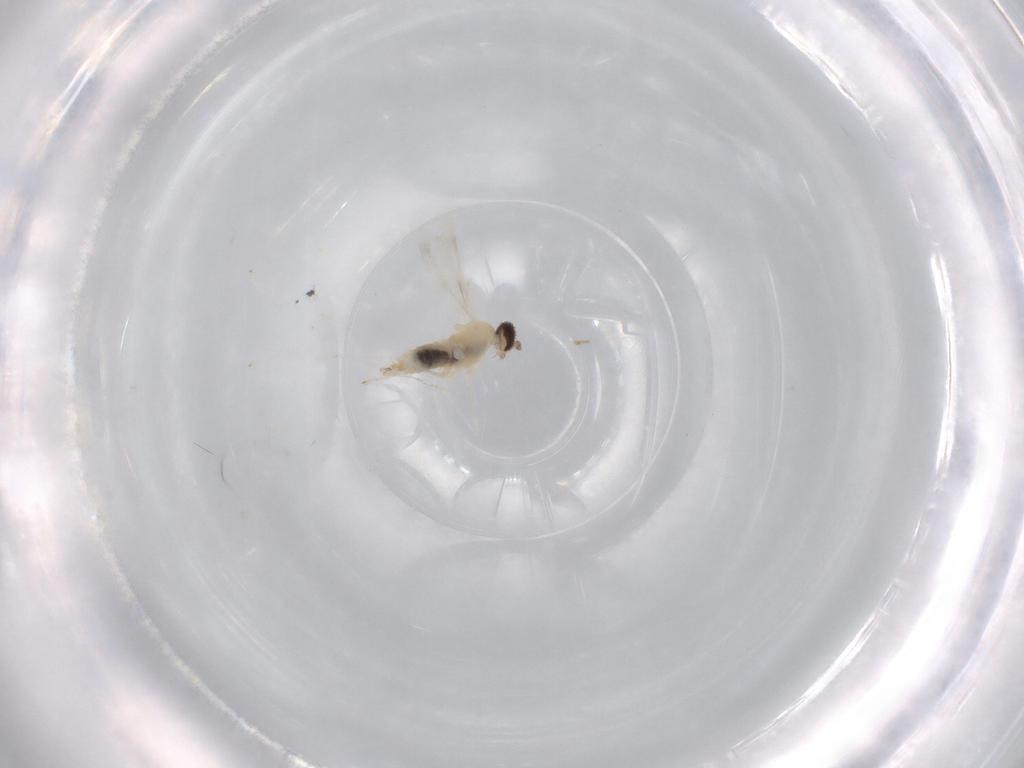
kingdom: Animalia
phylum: Arthropoda
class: Insecta
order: Diptera
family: Cecidomyiidae
